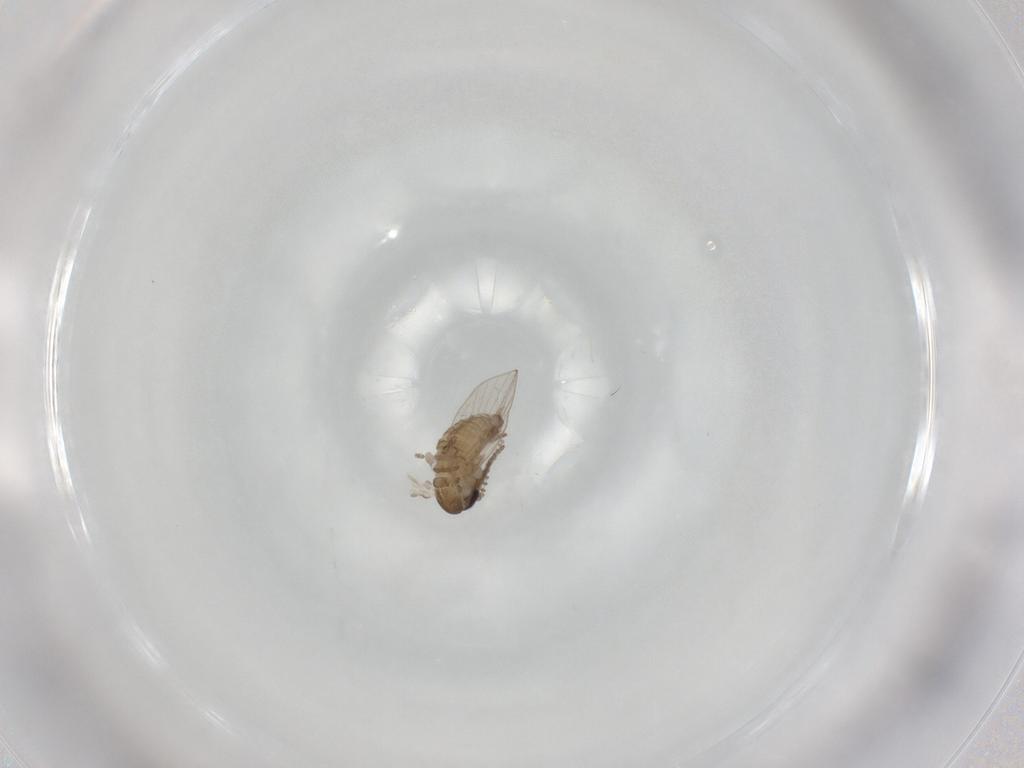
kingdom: Animalia
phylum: Arthropoda
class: Insecta
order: Diptera
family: Psychodidae
